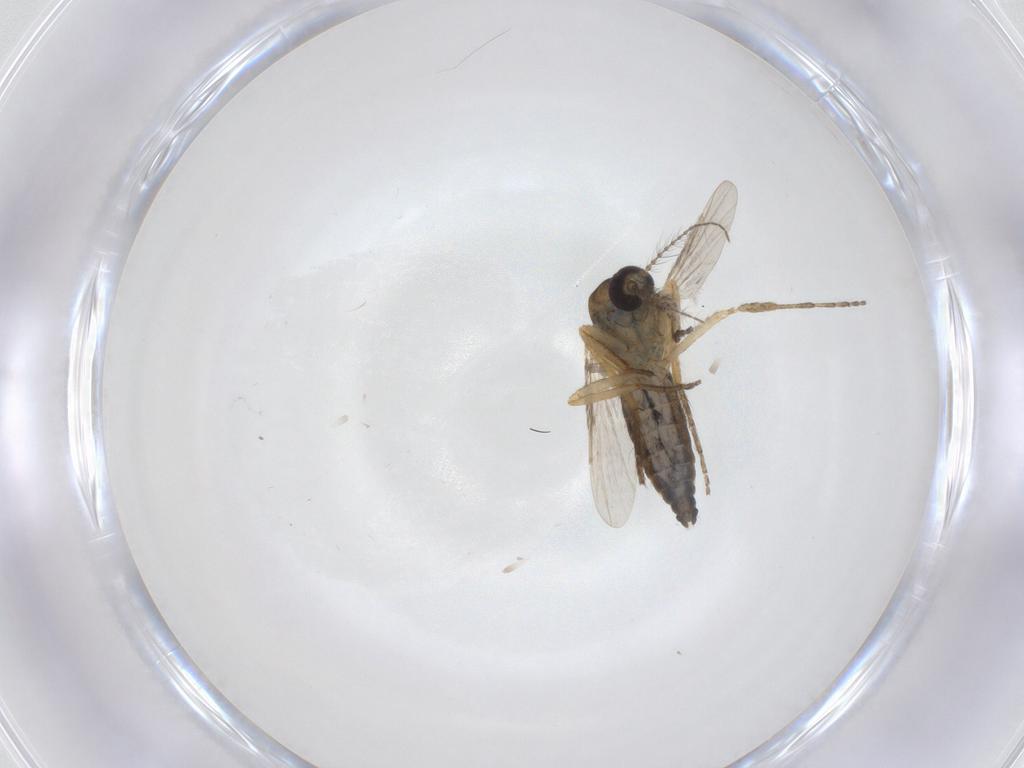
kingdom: Animalia
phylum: Arthropoda
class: Insecta
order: Diptera
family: Ceratopogonidae
